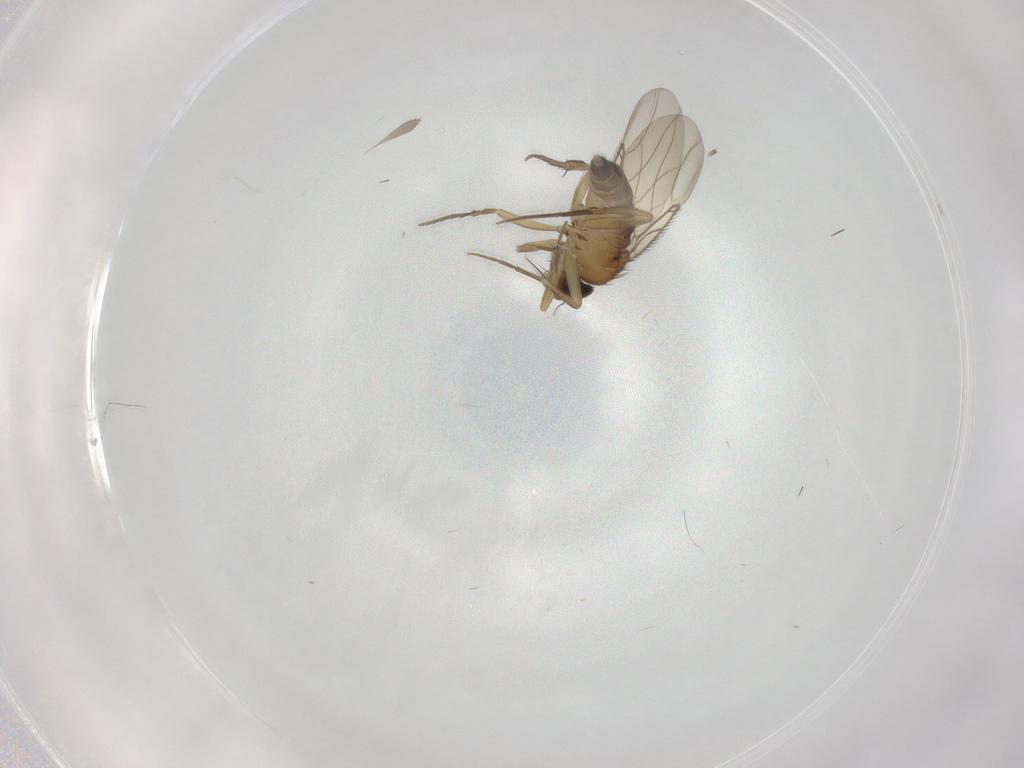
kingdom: Animalia
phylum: Arthropoda
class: Insecta
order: Diptera
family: Phoridae
